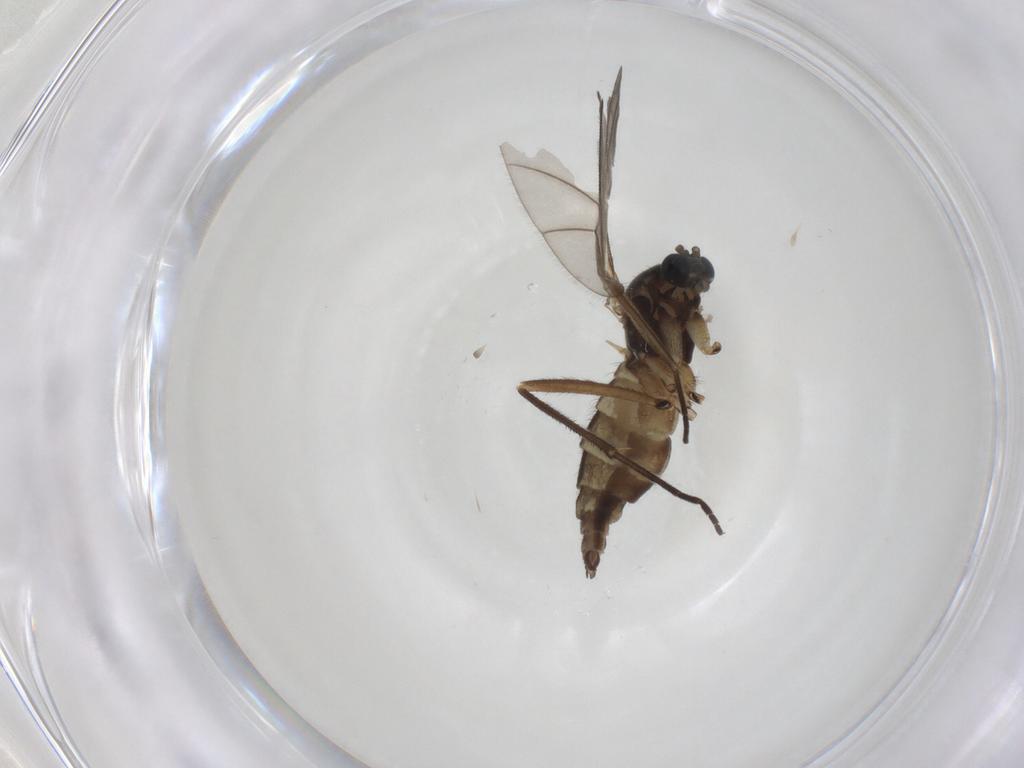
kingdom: Animalia
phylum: Arthropoda
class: Insecta
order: Diptera
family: Sciaridae
